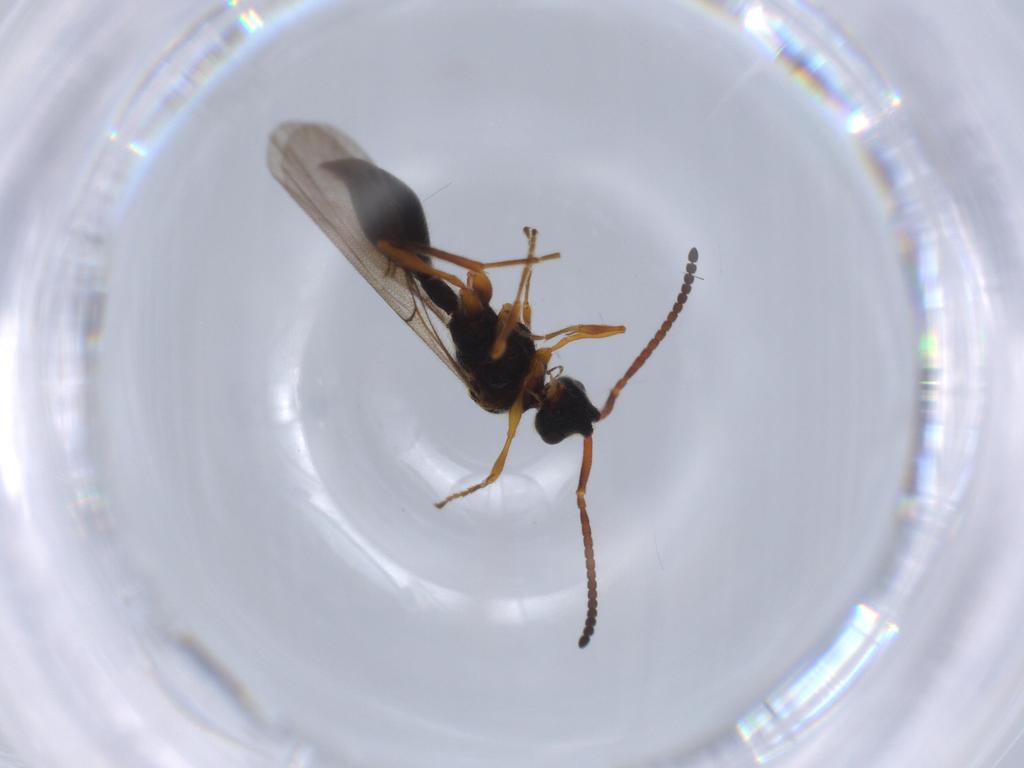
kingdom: Animalia
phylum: Arthropoda
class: Insecta
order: Hymenoptera
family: Diapriidae
